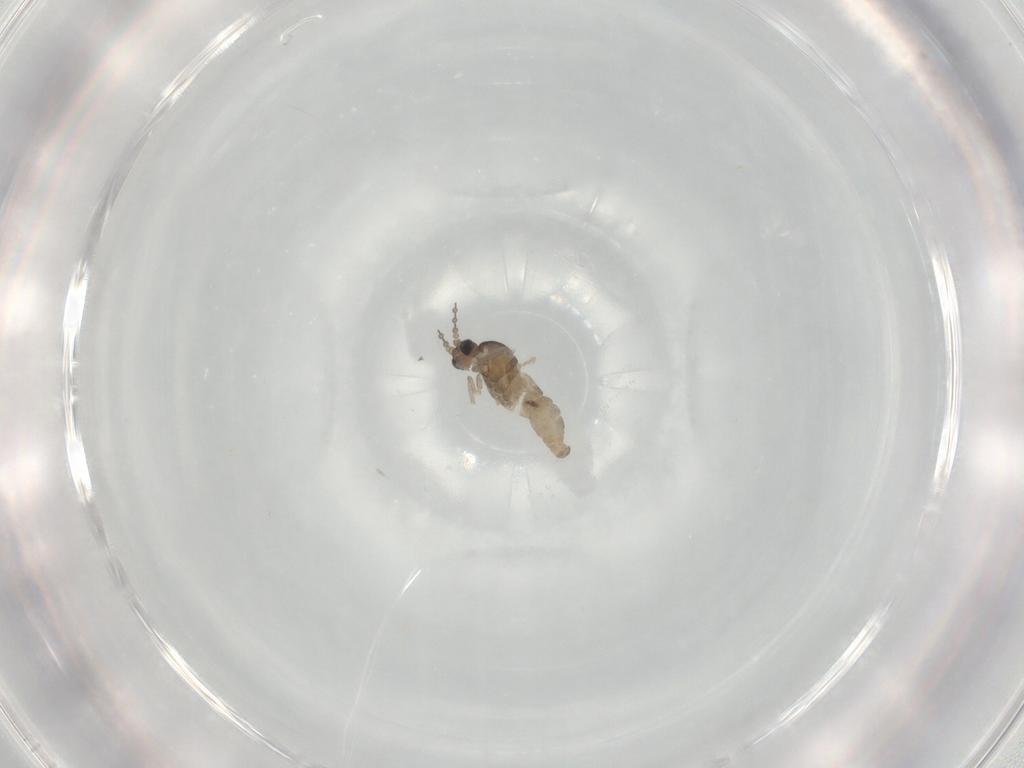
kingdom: Animalia
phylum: Arthropoda
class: Insecta
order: Diptera
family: Cecidomyiidae
